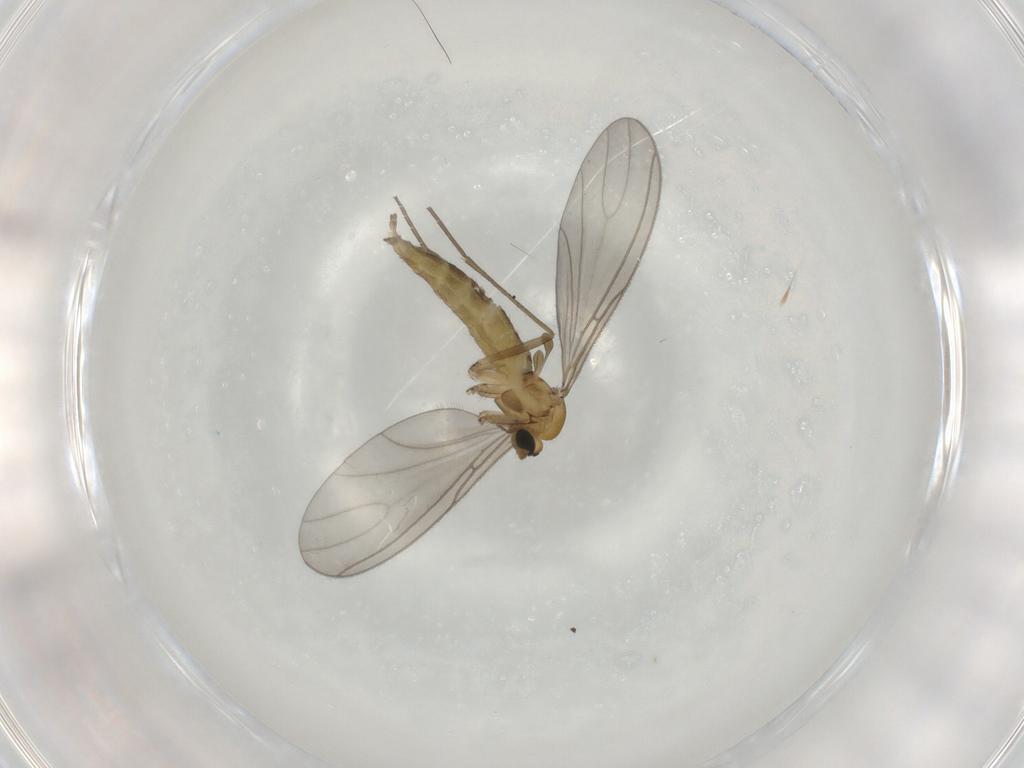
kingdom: Animalia
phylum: Arthropoda
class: Insecta
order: Diptera
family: Sciaridae
